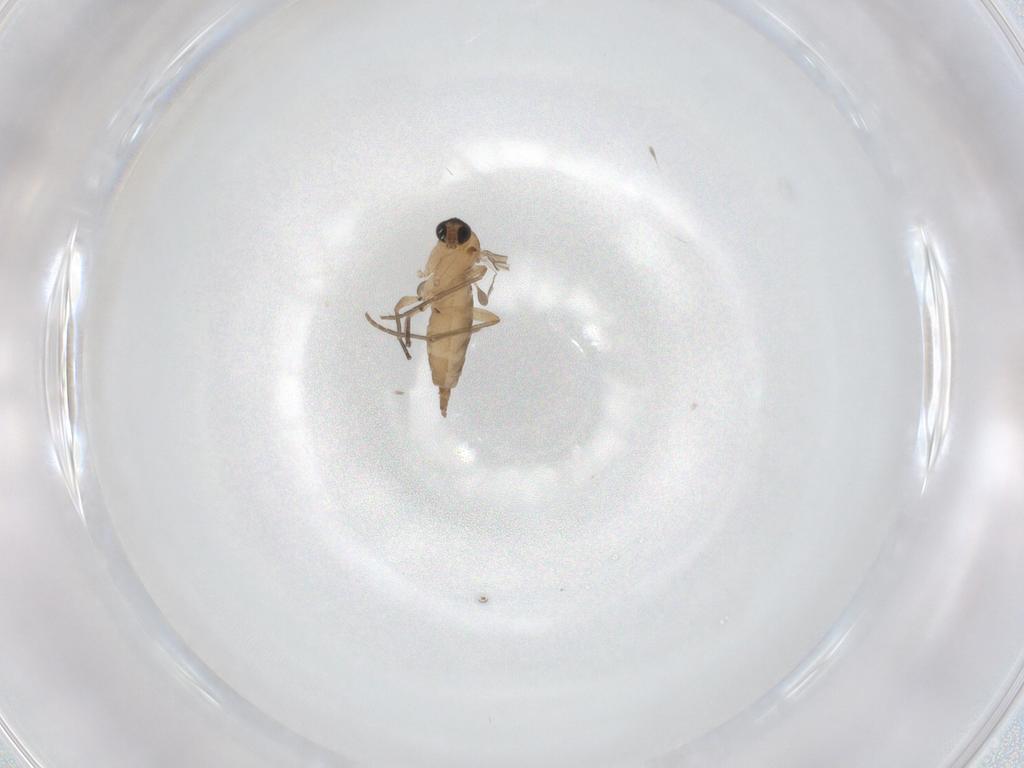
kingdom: Animalia
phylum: Arthropoda
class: Insecta
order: Diptera
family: Sciaridae
